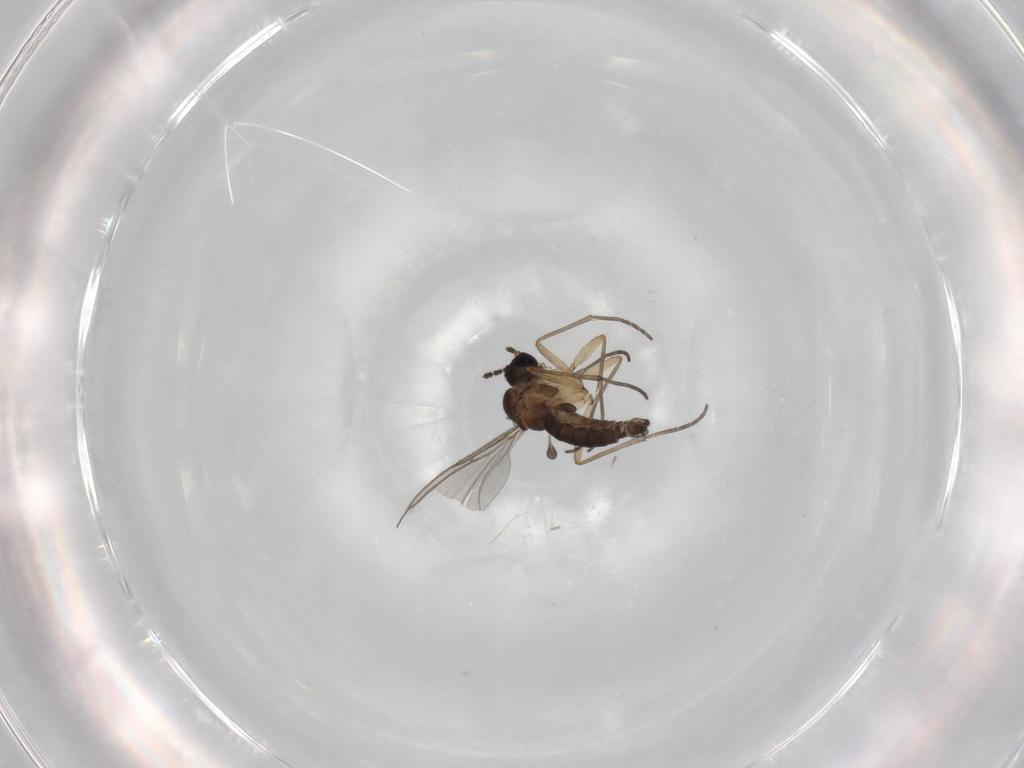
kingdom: Animalia
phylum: Arthropoda
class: Insecta
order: Diptera
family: Sciaridae
